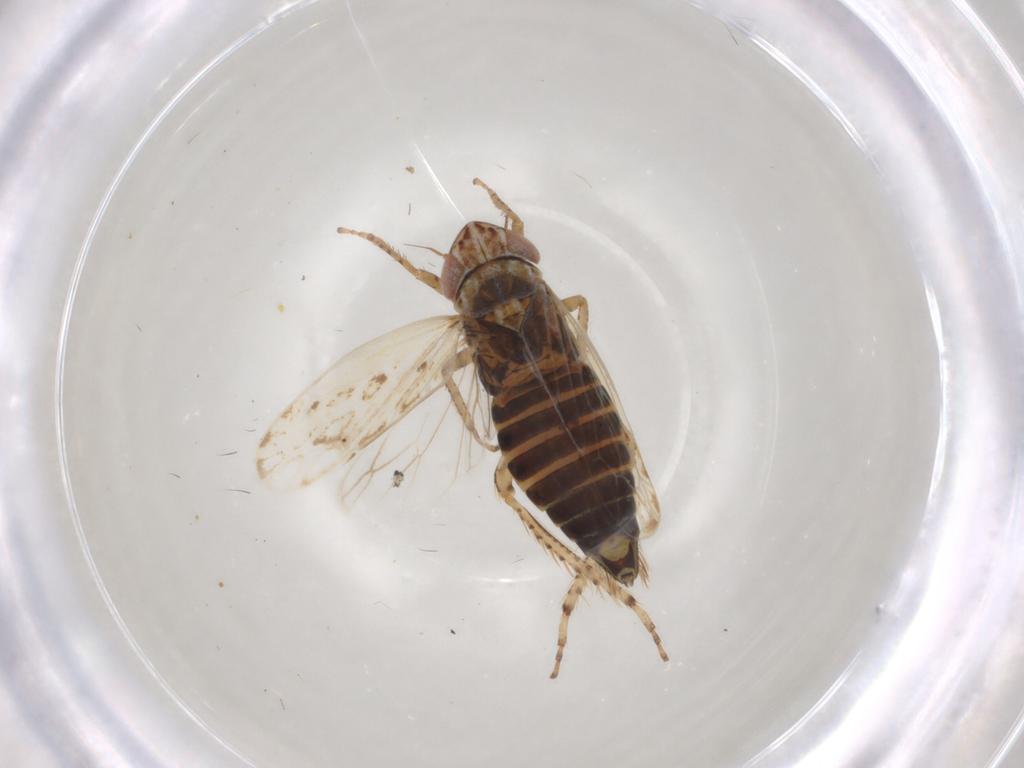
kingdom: Animalia
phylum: Arthropoda
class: Insecta
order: Hemiptera
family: Cicadellidae
